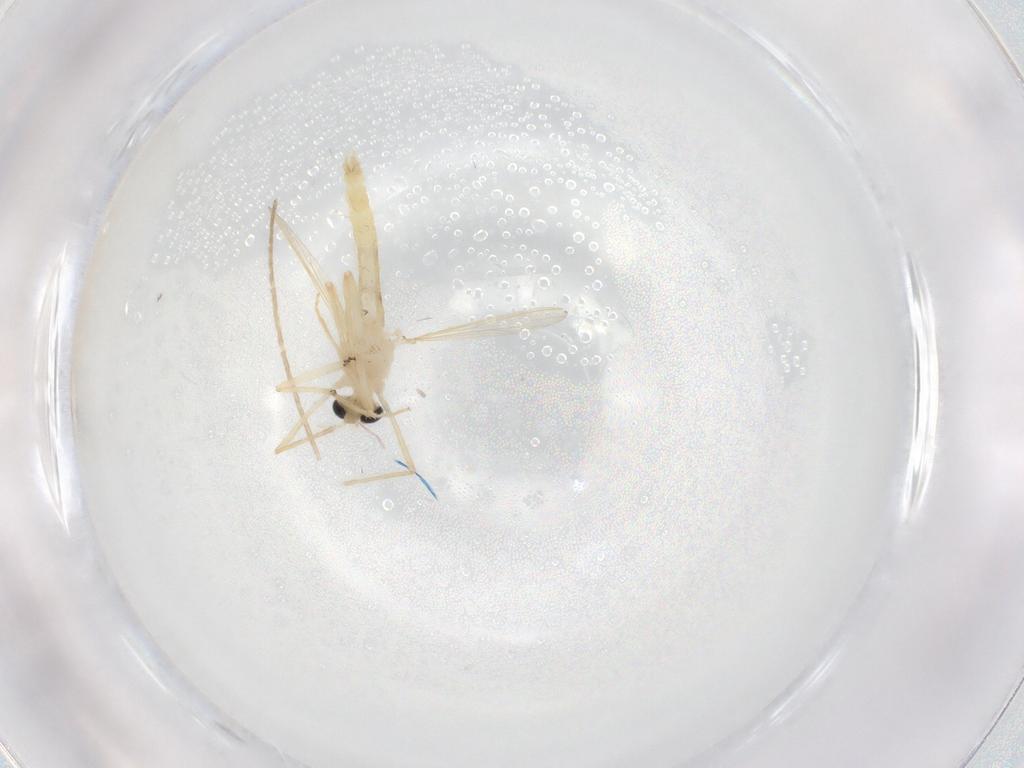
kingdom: Animalia
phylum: Arthropoda
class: Insecta
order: Diptera
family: Chironomidae
